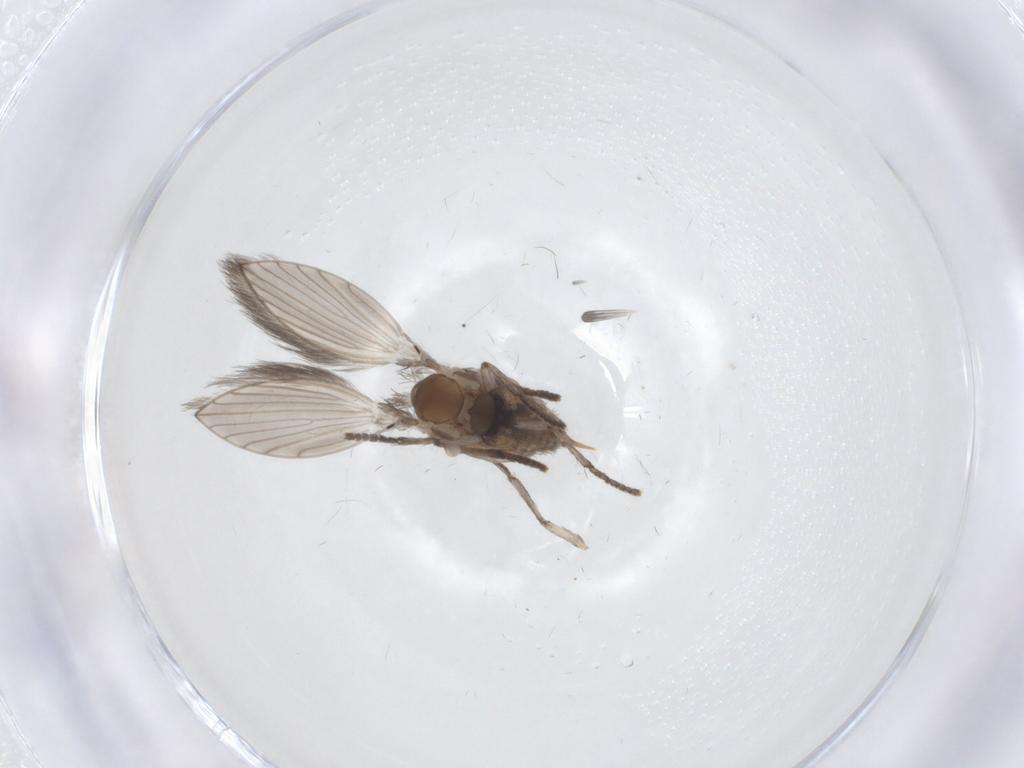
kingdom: Animalia
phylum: Arthropoda
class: Insecta
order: Diptera
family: Psychodidae
